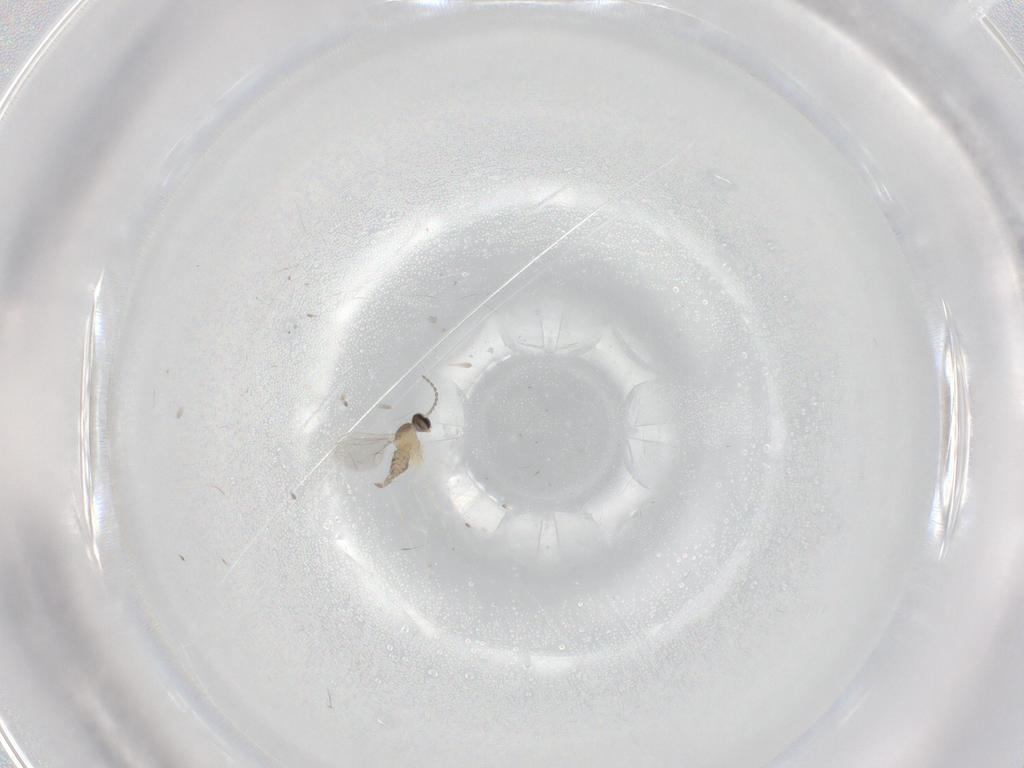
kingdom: Animalia
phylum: Arthropoda
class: Insecta
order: Diptera
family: Cecidomyiidae
